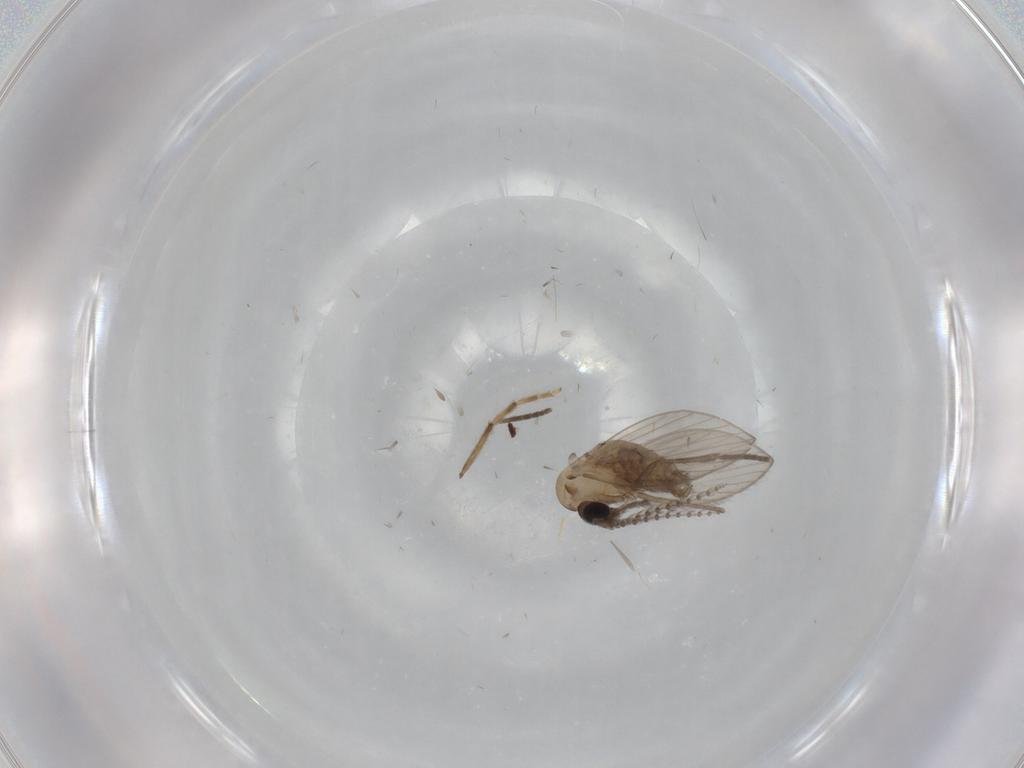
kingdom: Animalia
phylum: Arthropoda
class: Insecta
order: Diptera
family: Psychodidae
